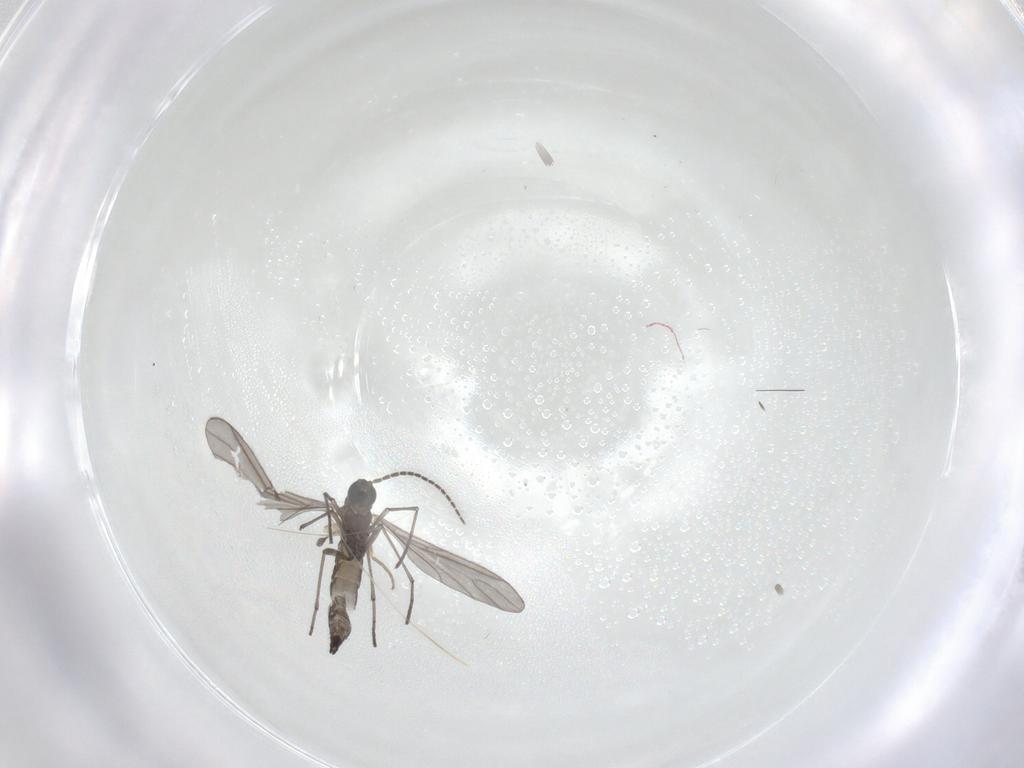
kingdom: Animalia
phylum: Arthropoda
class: Insecta
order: Diptera
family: Sciaridae
